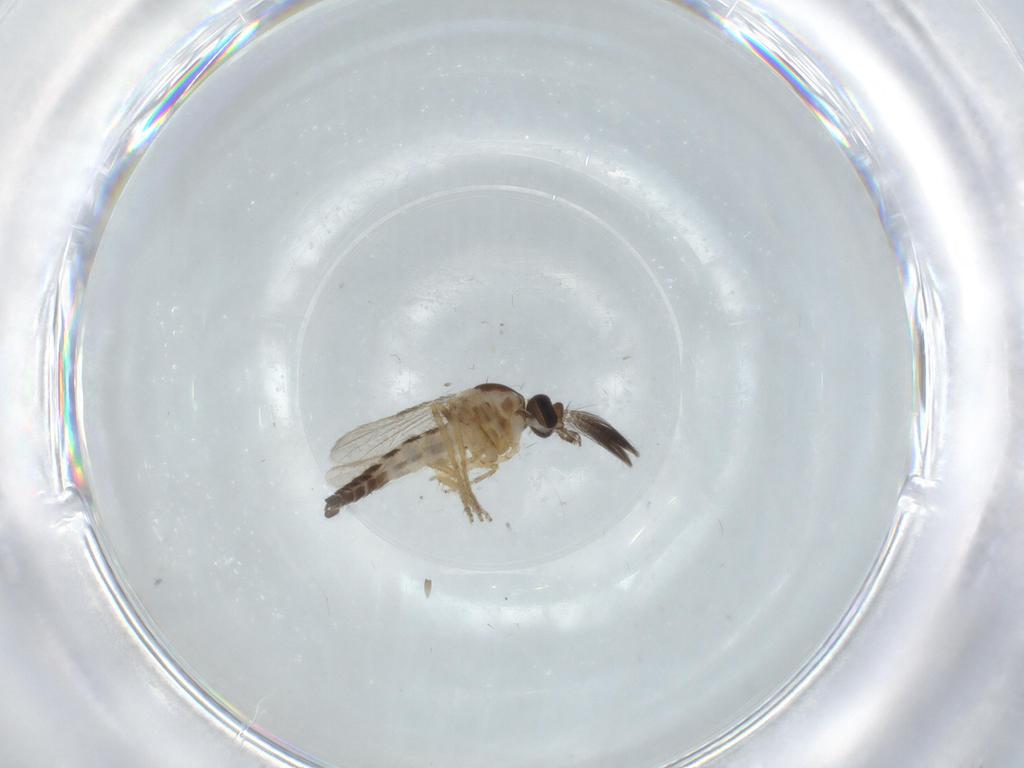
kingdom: Animalia
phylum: Arthropoda
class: Insecta
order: Diptera
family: Ceratopogonidae
